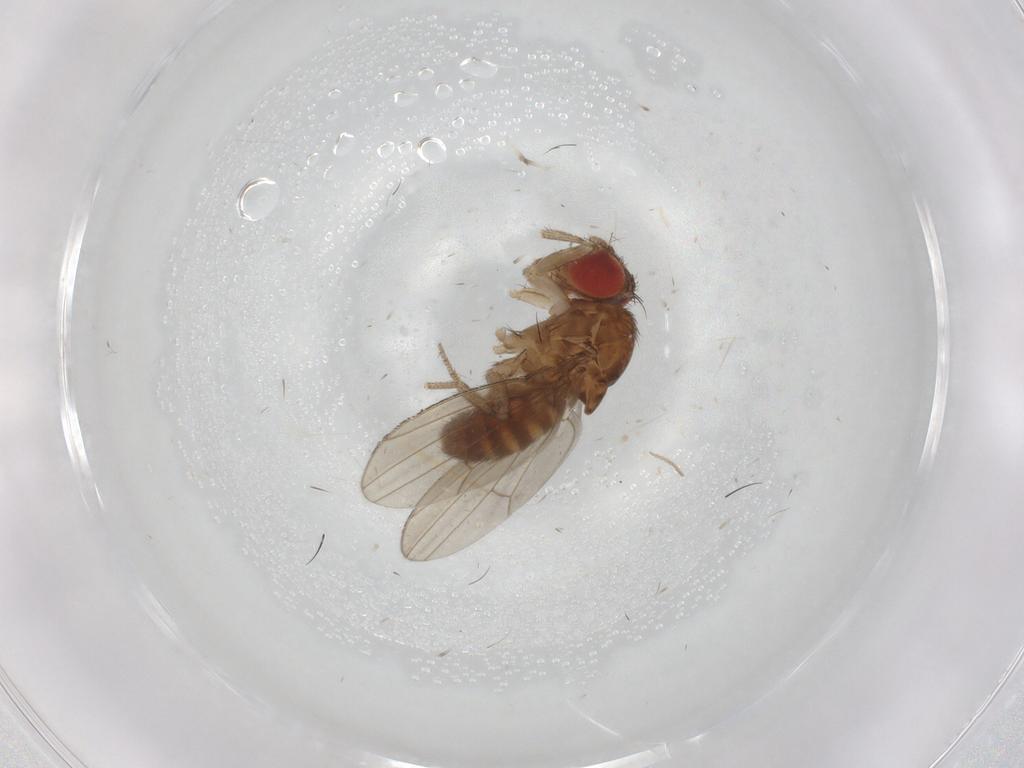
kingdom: Animalia
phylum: Arthropoda
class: Insecta
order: Diptera
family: Drosophilidae
